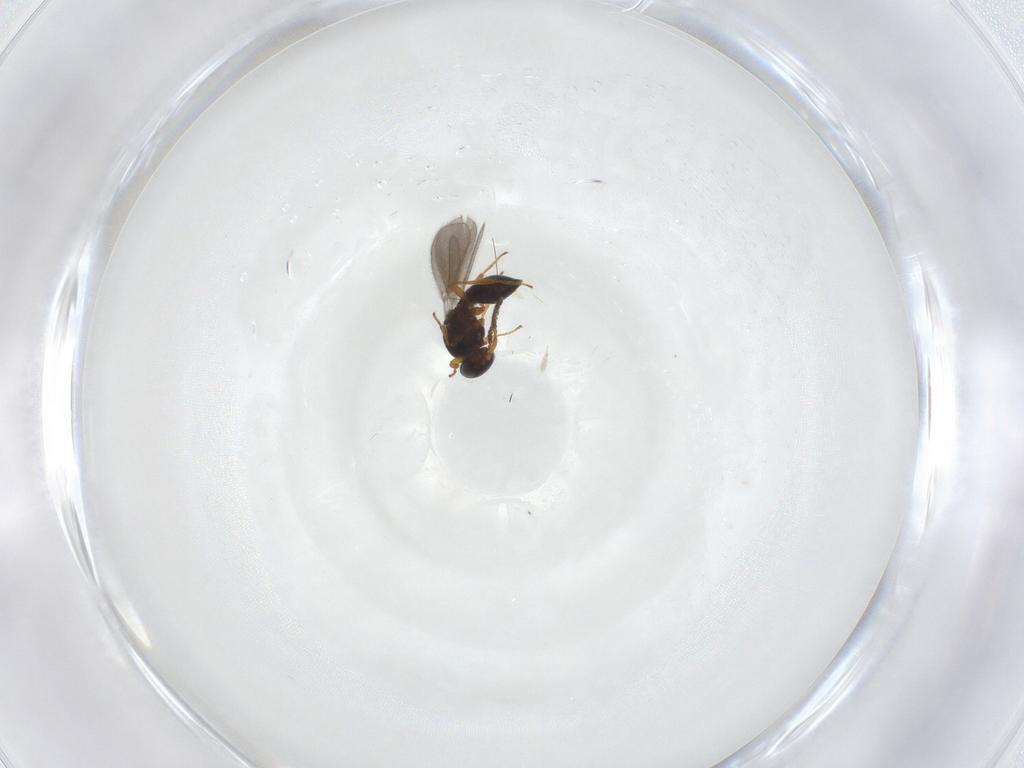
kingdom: Animalia
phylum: Arthropoda
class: Insecta
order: Hymenoptera
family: Platygastridae
